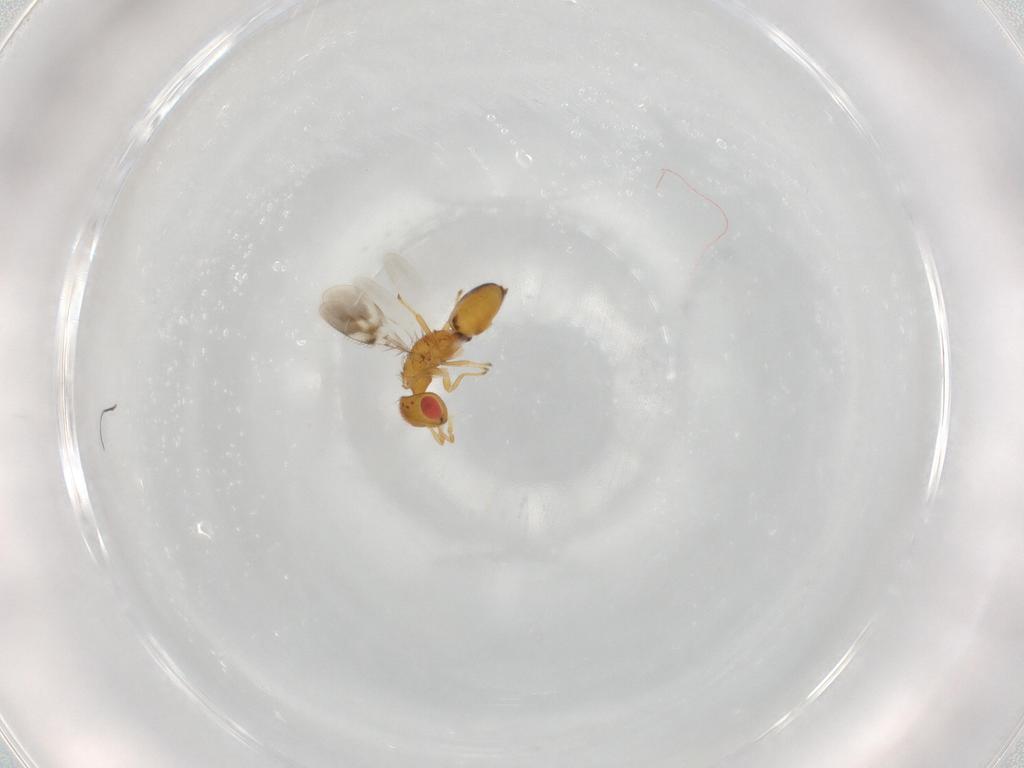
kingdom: Animalia
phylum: Arthropoda
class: Insecta
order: Hymenoptera
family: Eulophidae
